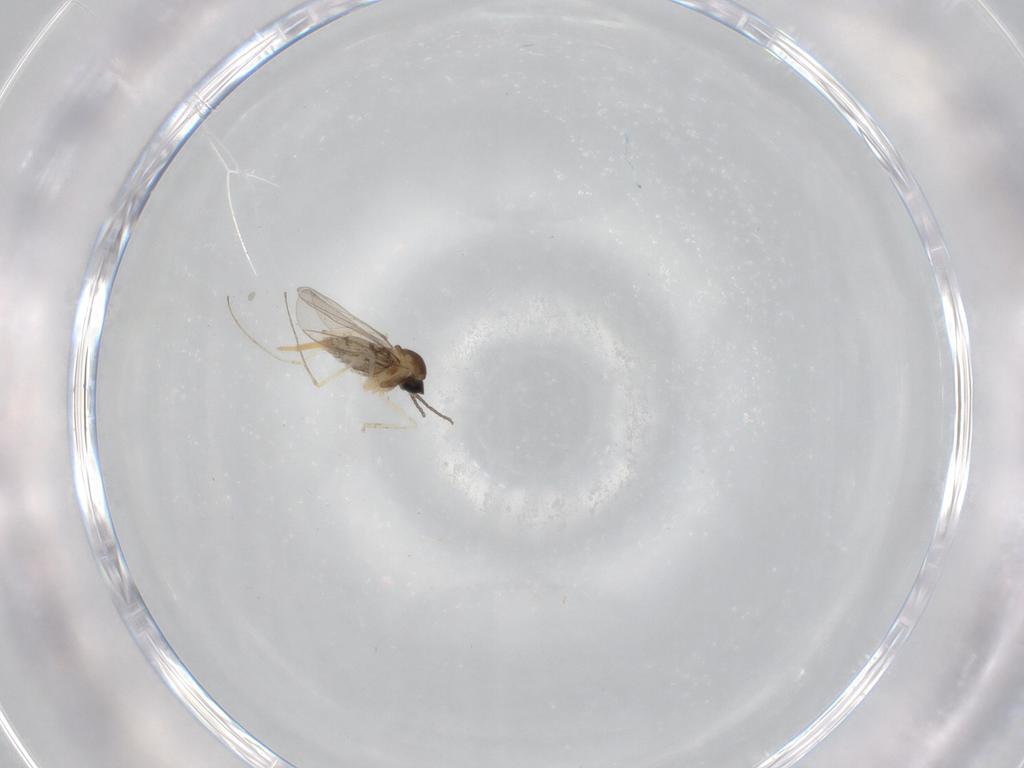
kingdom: Animalia
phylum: Arthropoda
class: Insecta
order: Diptera
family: Cecidomyiidae
